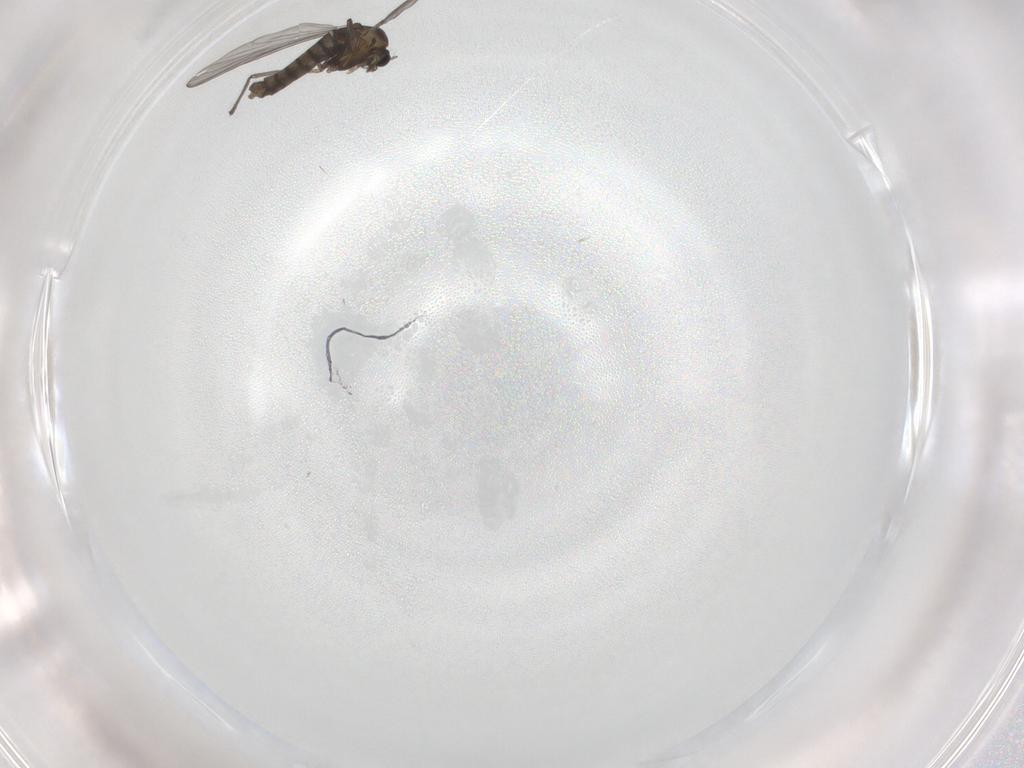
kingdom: Animalia
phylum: Arthropoda
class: Insecta
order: Diptera
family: Chironomidae
